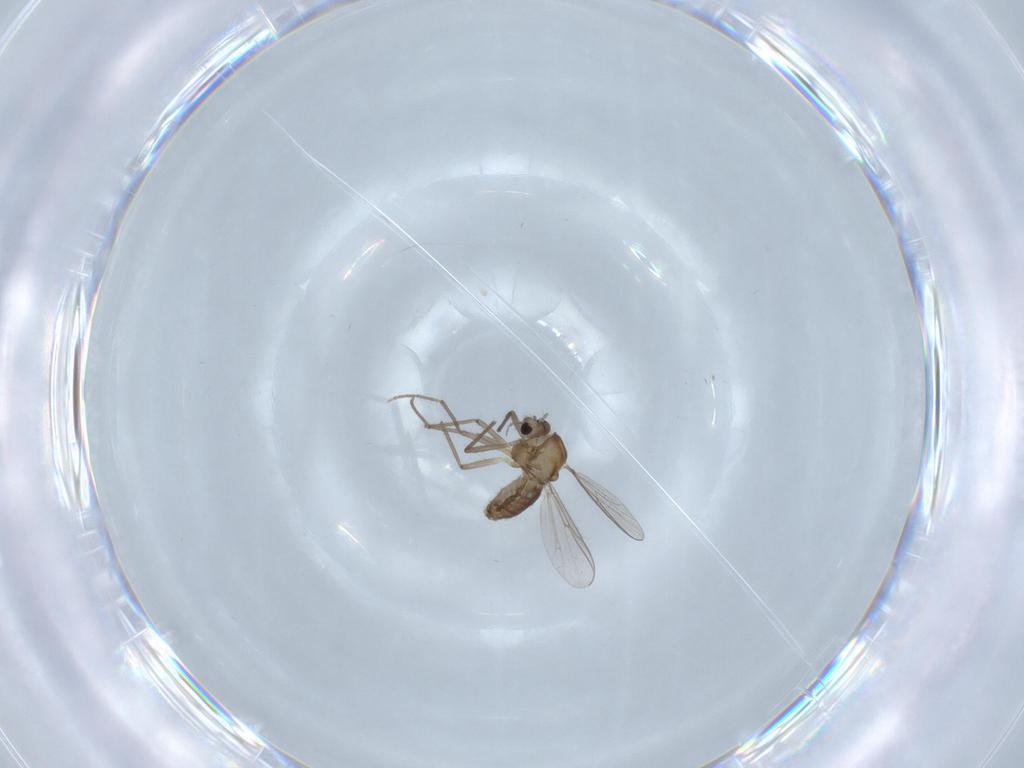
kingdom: Animalia
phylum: Arthropoda
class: Insecta
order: Diptera
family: Chironomidae
